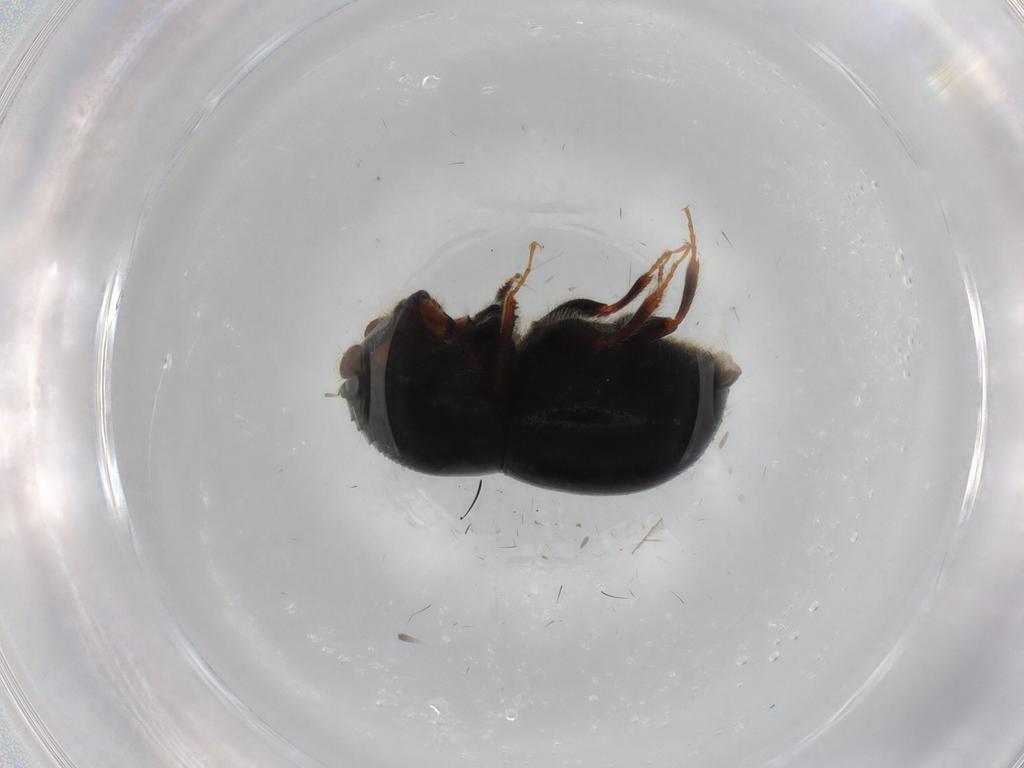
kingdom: Animalia
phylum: Arthropoda
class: Insecta
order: Coleoptera
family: Curculionidae
